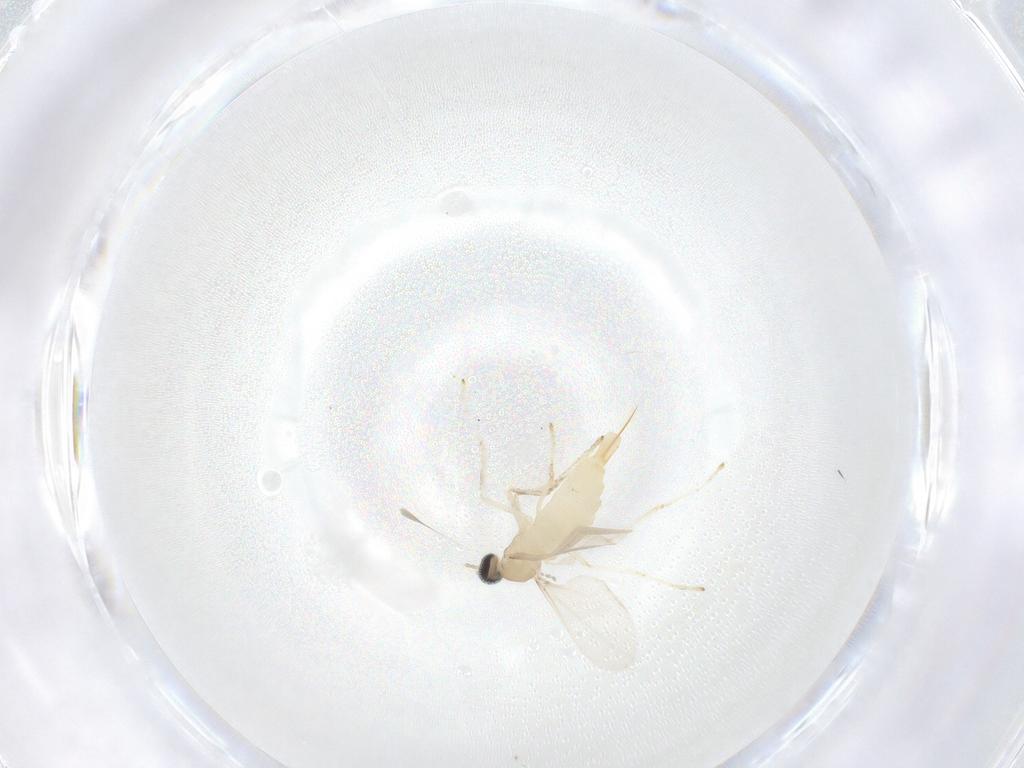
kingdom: Animalia
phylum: Arthropoda
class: Insecta
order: Diptera
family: Cecidomyiidae
